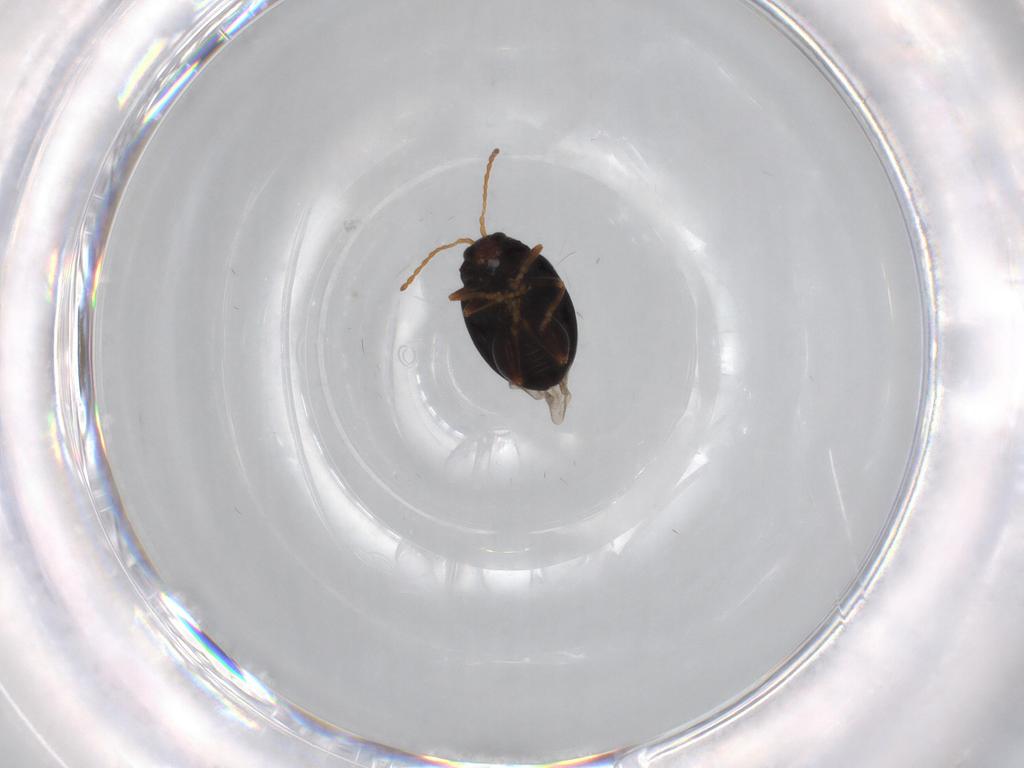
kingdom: Animalia
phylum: Arthropoda
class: Insecta
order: Coleoptera
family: Chrysomelidae
